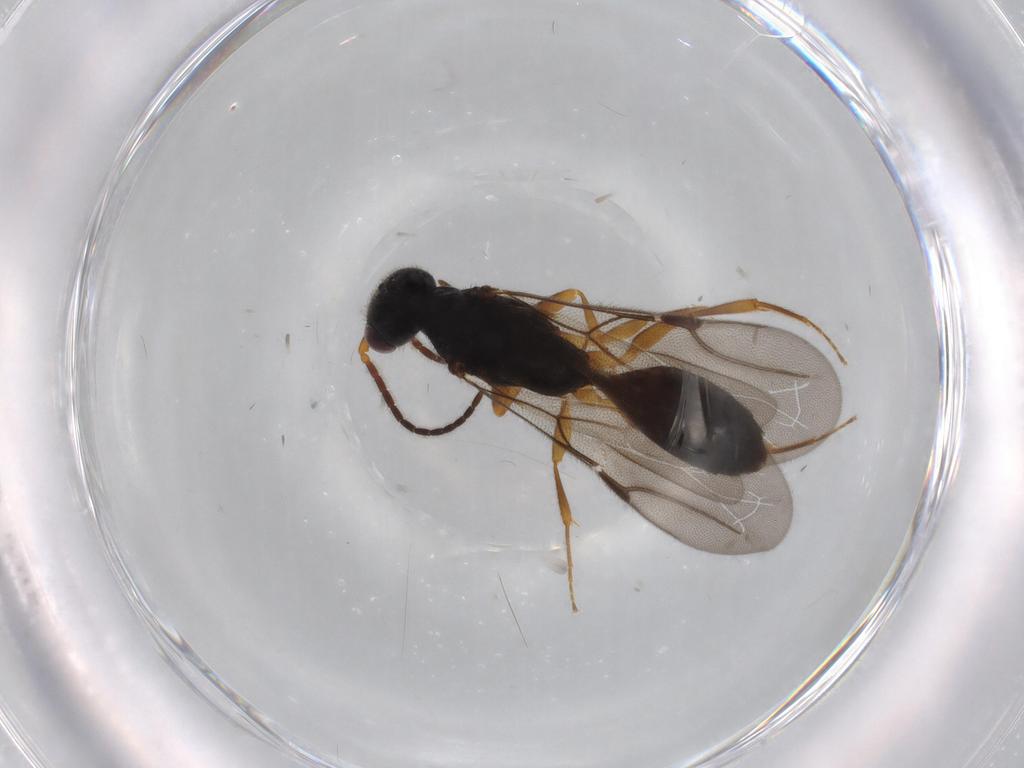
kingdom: Animalia
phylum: Arthropoda
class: Insecta
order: Hymenoptera
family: Bethylidae
